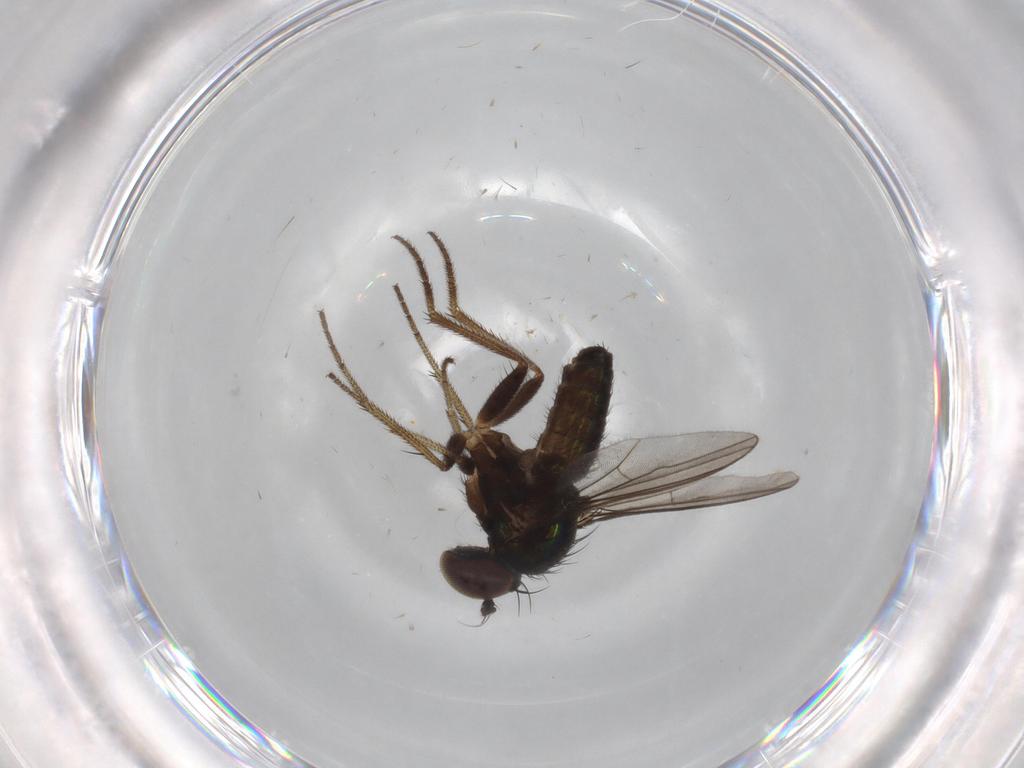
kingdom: Animalia
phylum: Arthropoda
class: Insecta
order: Diptera
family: Dolichopodidae
